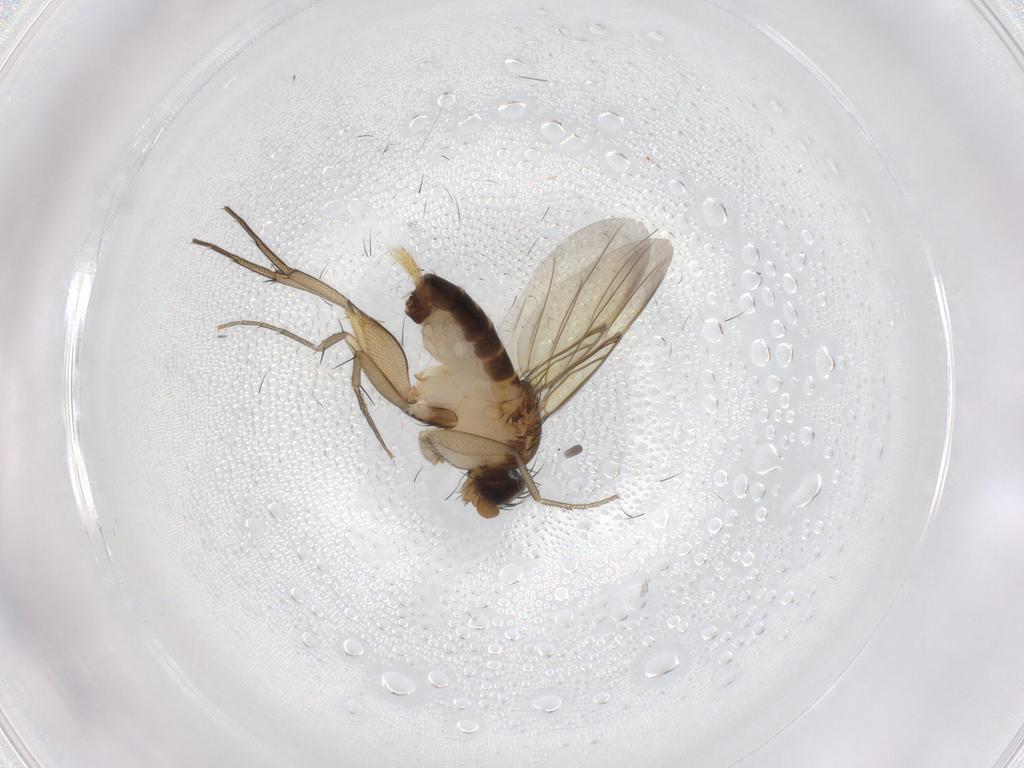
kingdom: Animalia
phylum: Arthropoda
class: Insecta
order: Diptera
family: Phoridae
